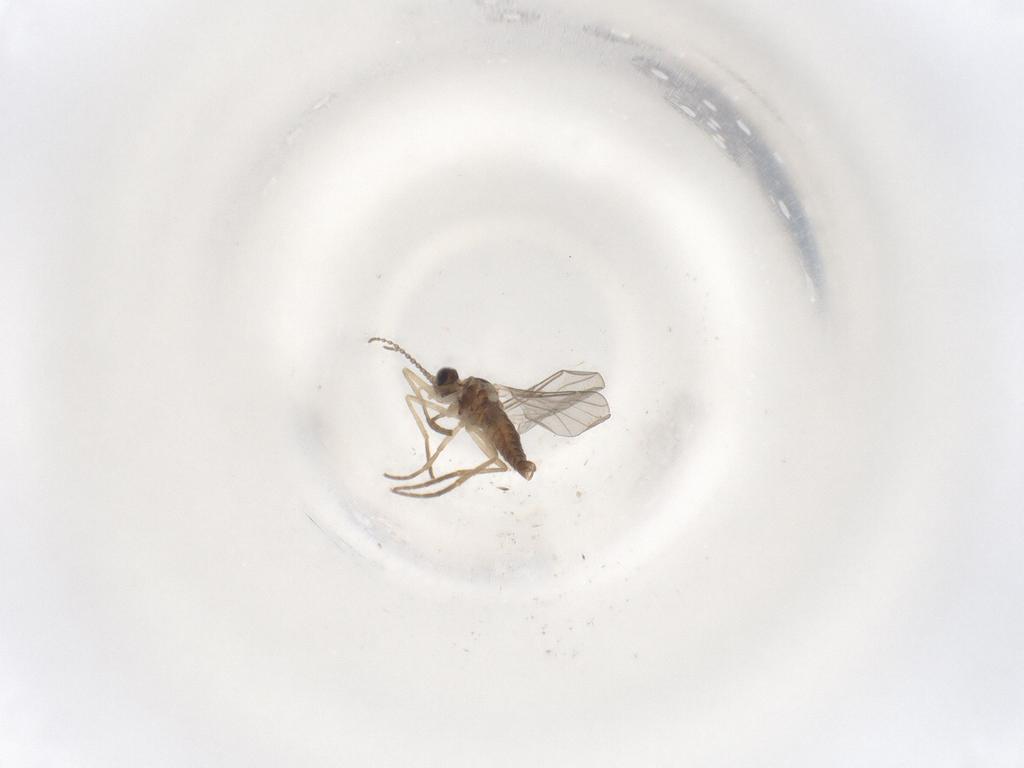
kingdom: Animalia
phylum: Arthropoda
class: Insecta
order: Diptera
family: Cecidomyiidae
